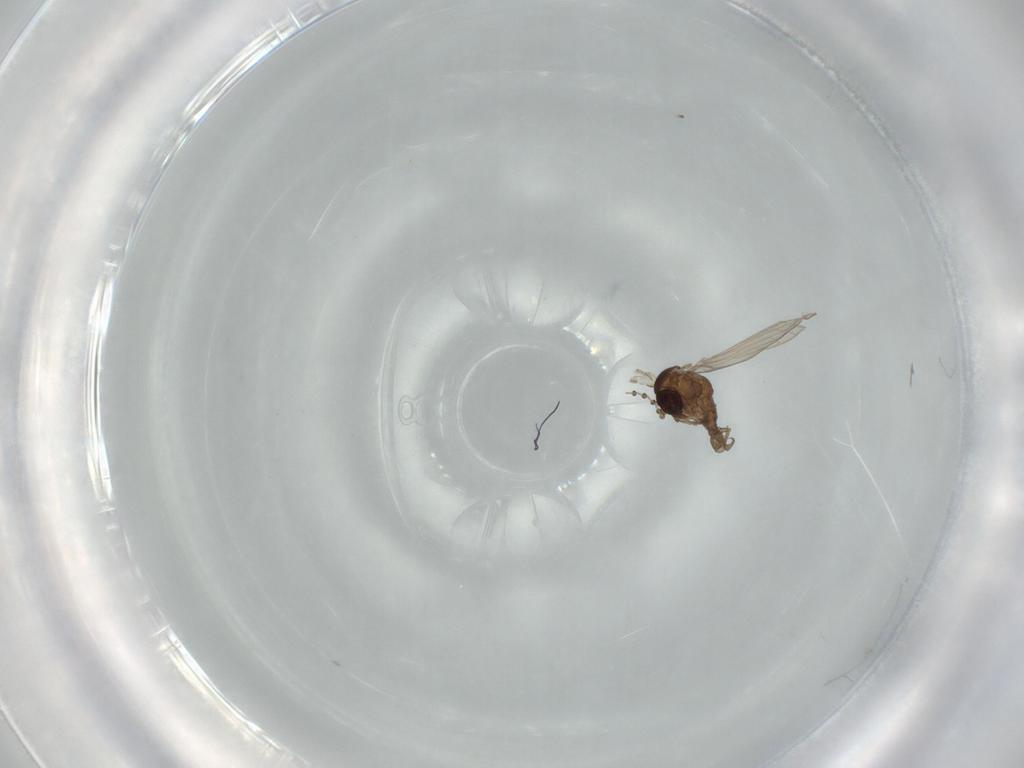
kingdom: Animalia
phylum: Arthropoda
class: Insecta
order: Diptera
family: Psychodidae
